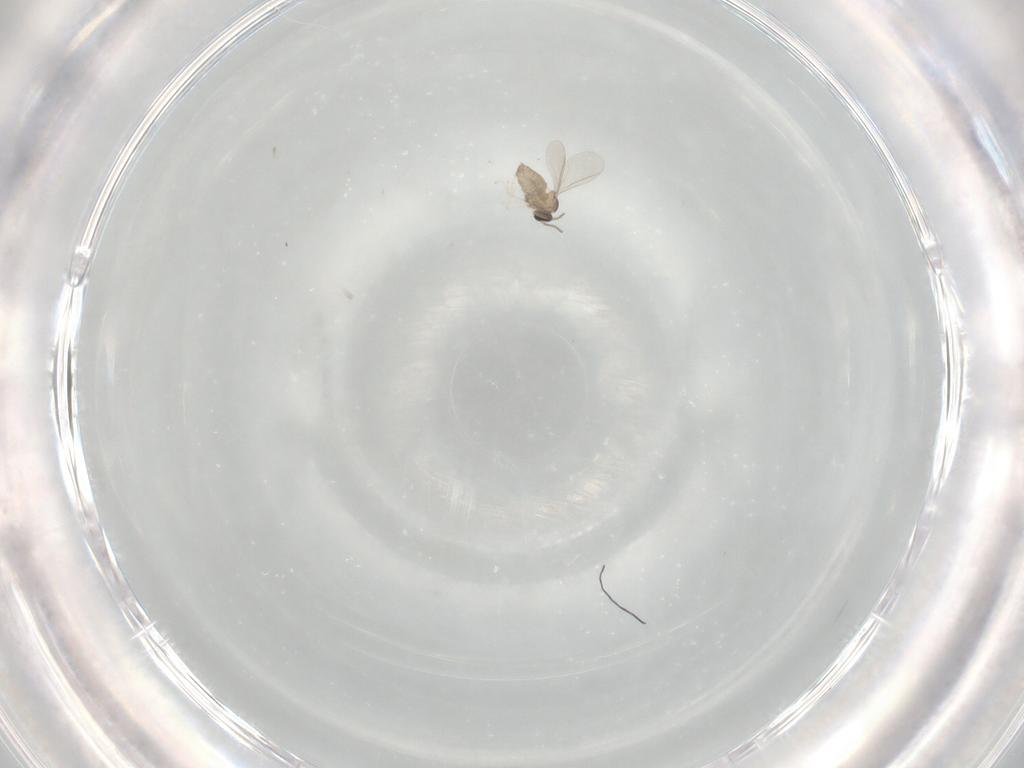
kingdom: Animalia
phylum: Arthropoda
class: Insecta
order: Diptera
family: Cecidomyiidae
